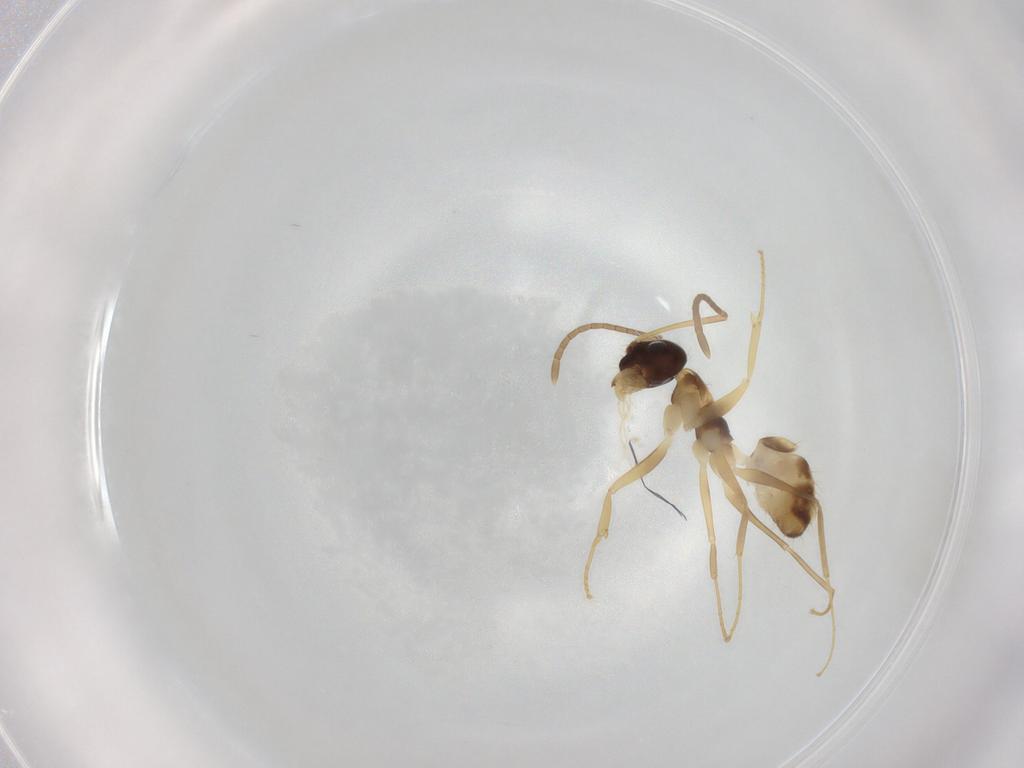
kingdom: Animalia
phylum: Arthropoda
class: Insecta
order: Hymenoptera
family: Formicidae
